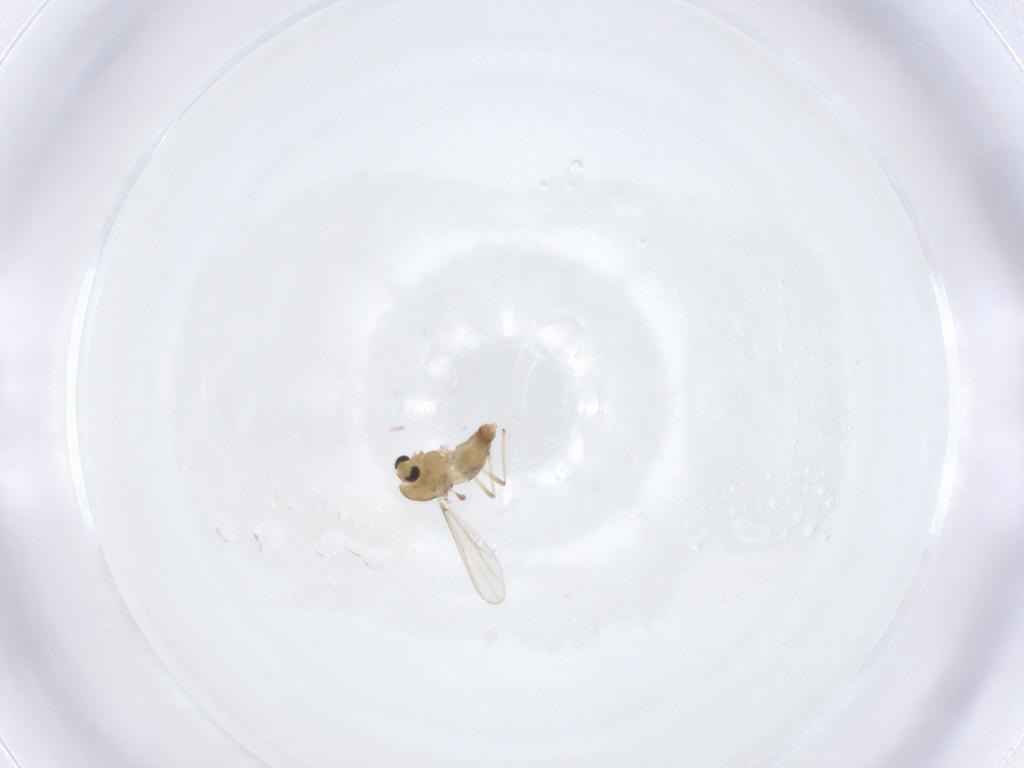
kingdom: Animalia
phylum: Arthropoda
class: Insecta
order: Diptera
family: Chironomidae
